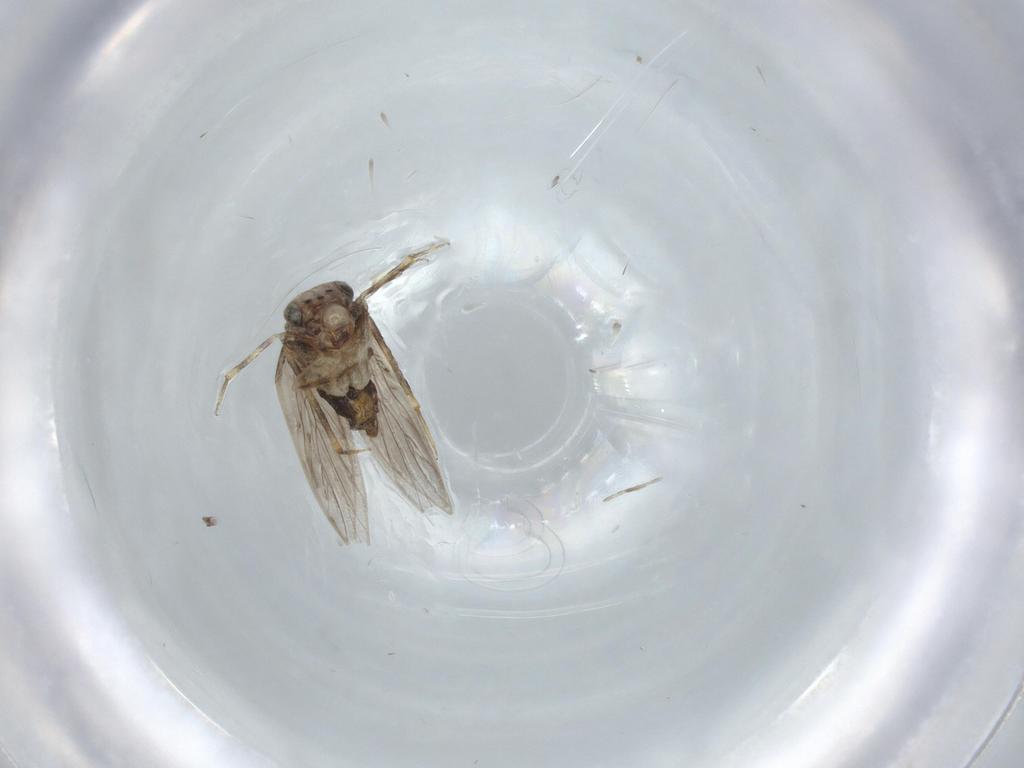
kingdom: Animalia
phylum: Arthropoda
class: Insecta
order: Psocodea
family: Lepidopsocidae
